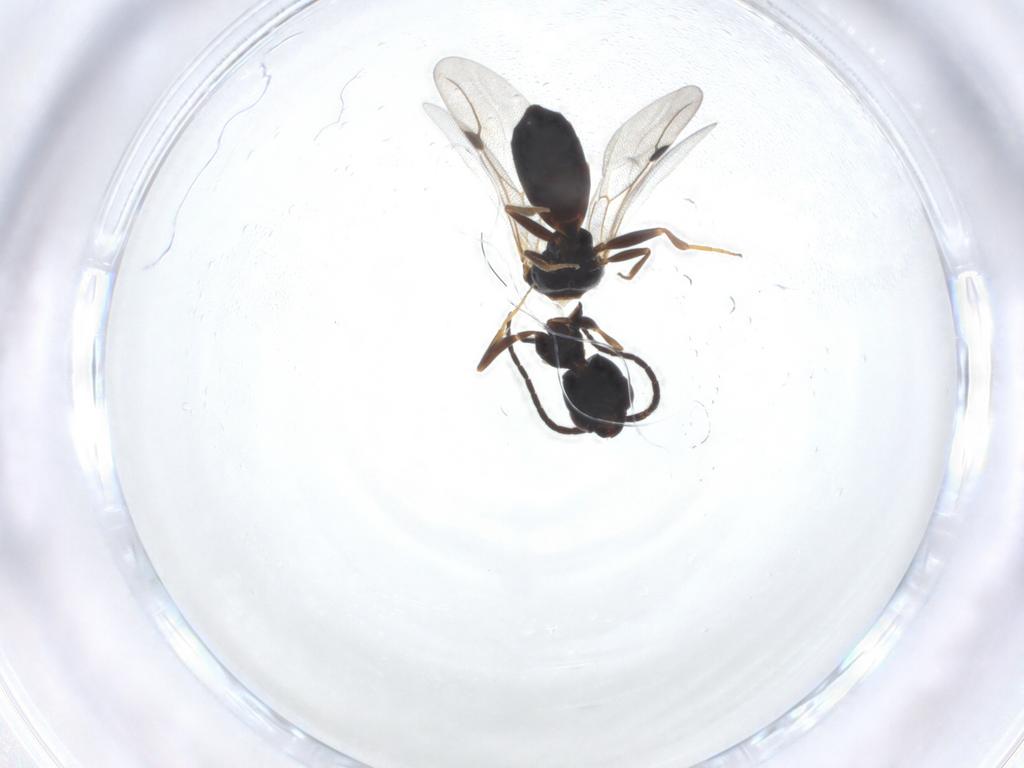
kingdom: Animalia
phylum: Arthropoda
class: Insecta
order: Hymenoptera
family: Bethylidae
